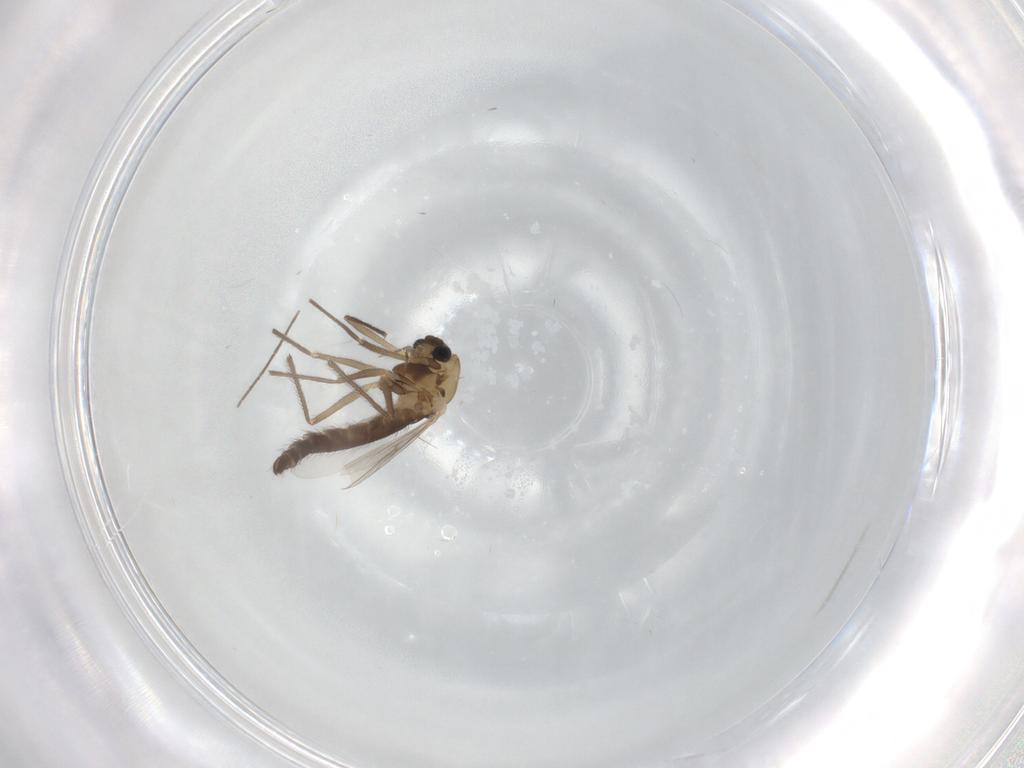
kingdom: Animalia
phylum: Arthropoda
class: Insecta
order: Diptera
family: Chironomidae
